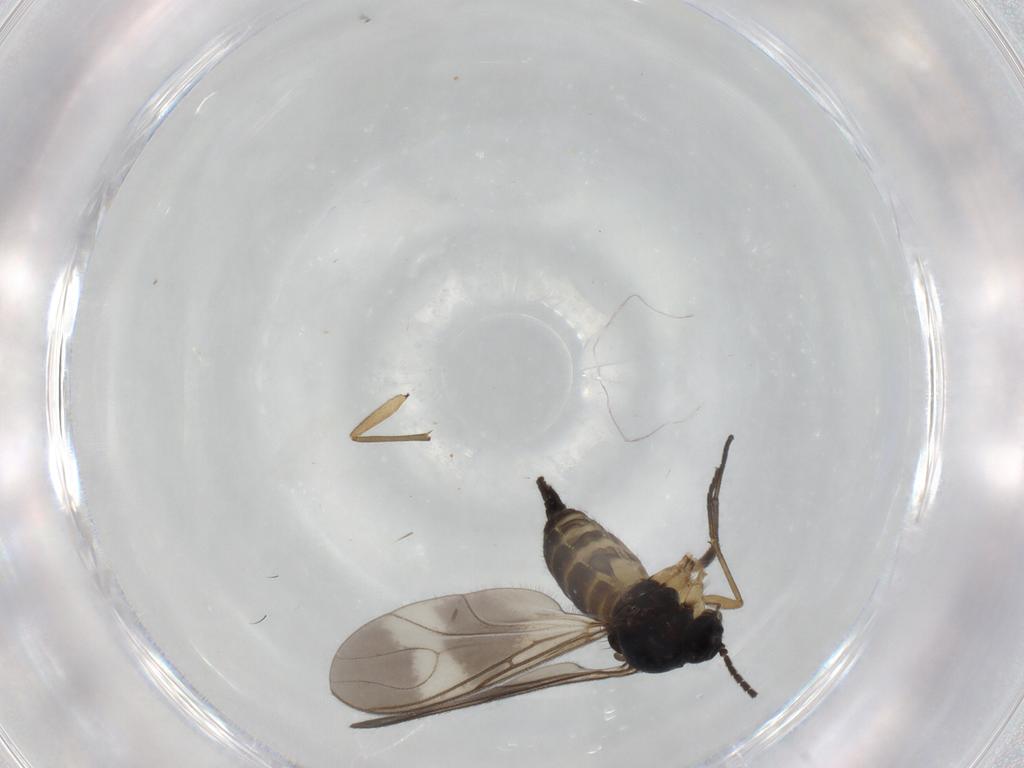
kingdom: Animalia
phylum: Arthropoda
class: Insecta
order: Diptera
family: Sciaridae
